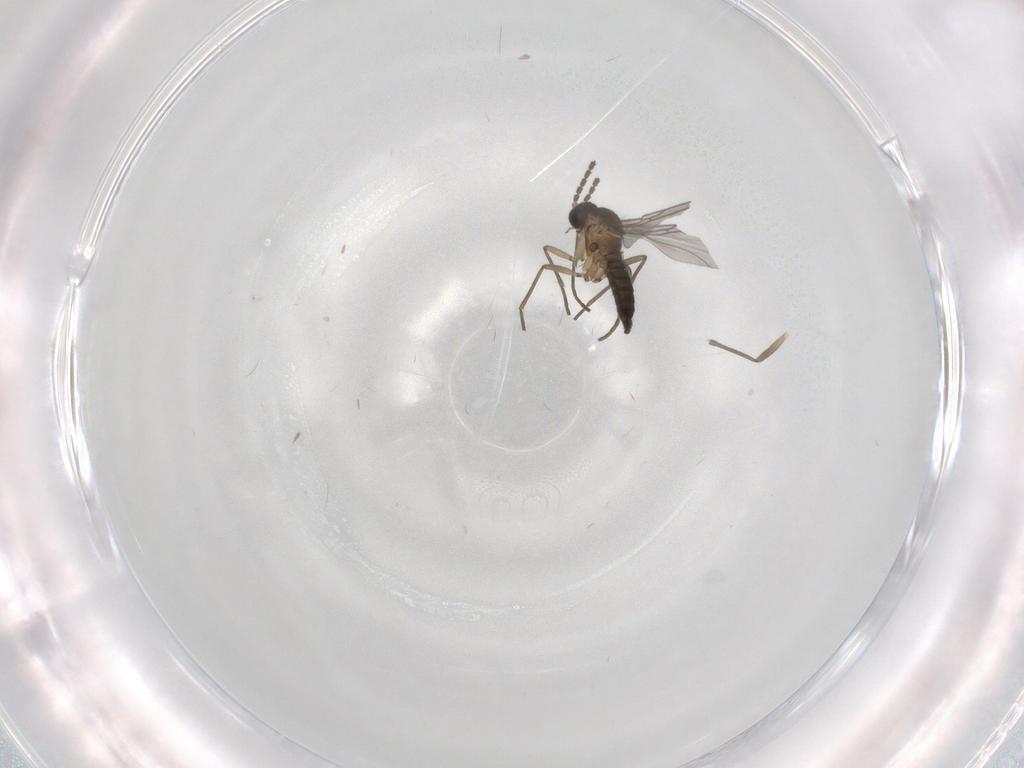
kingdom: Animalia
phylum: Arthropoda
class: Insecta
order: Diptera
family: Sciaridae
